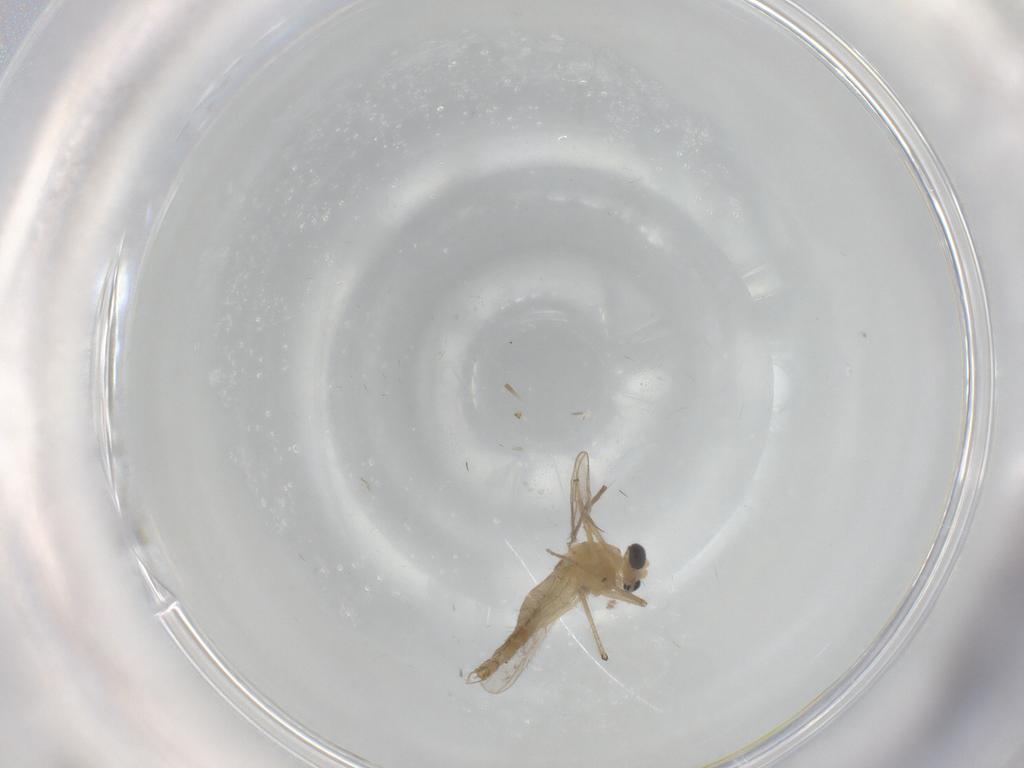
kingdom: Animalia
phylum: Arthropoda
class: Insecta
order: Diptera
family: Chironomidae
